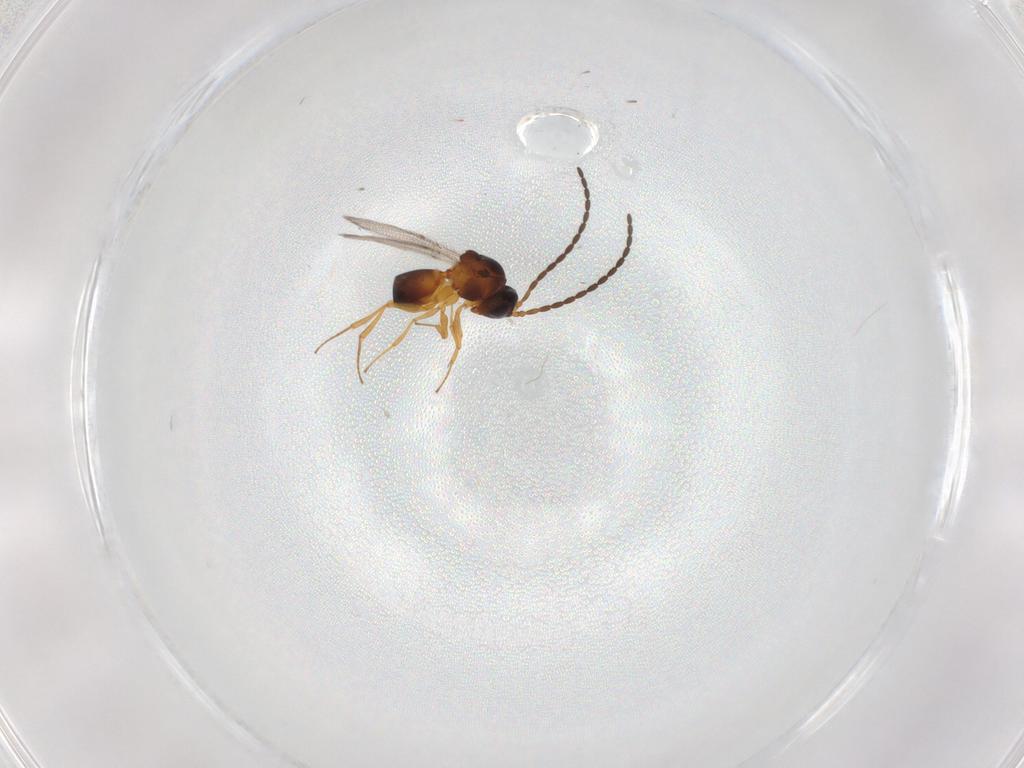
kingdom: Animalia
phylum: Arthropoda
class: Insecta
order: Hymenoptera
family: Figitidae
